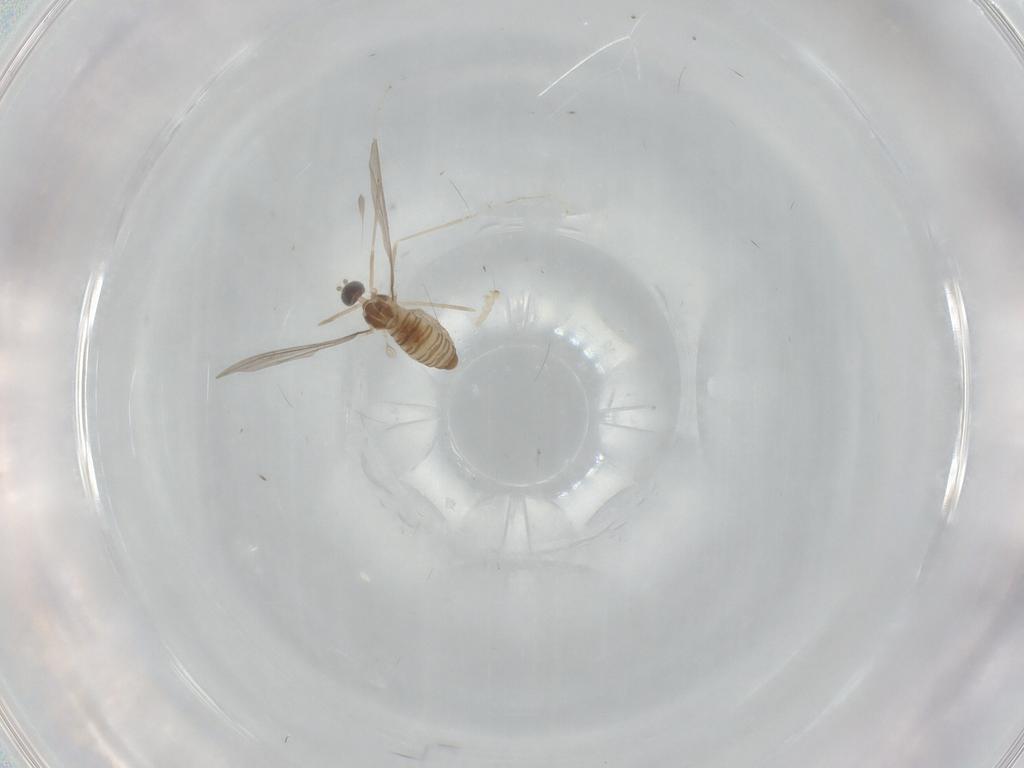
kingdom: Animalia
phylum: Arthropoda
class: Insecta
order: Diptera
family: Cecidomyiidae
